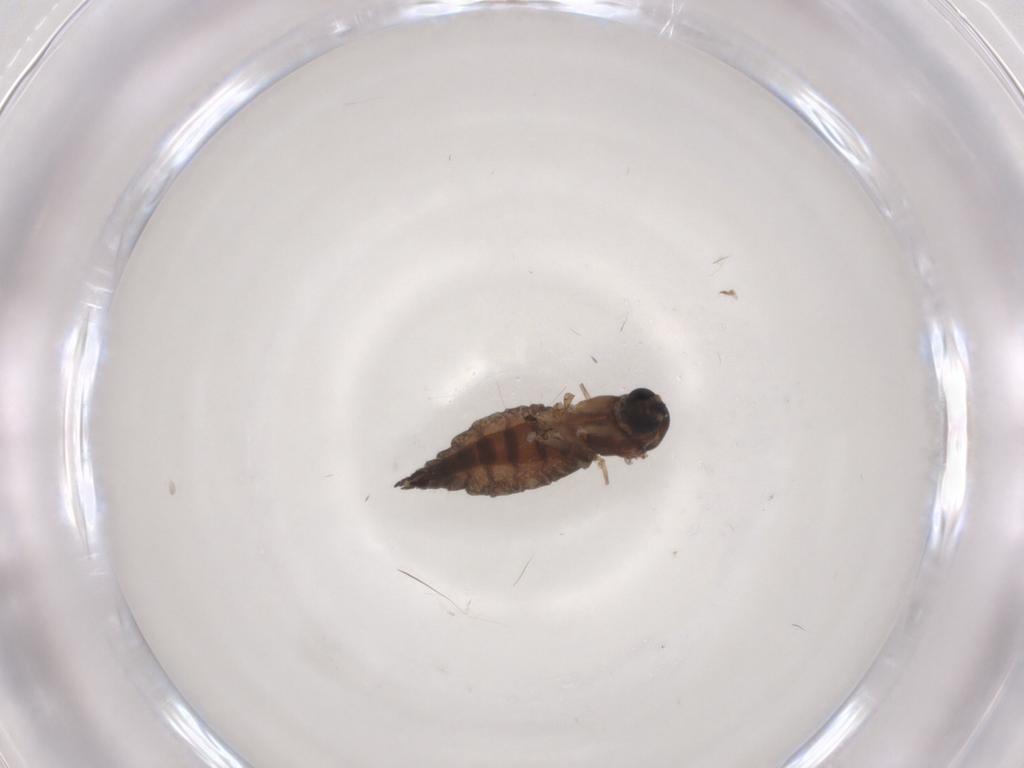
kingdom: Animalia
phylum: Arthropoda
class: Insecta
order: Diptera
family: Sciaridae
